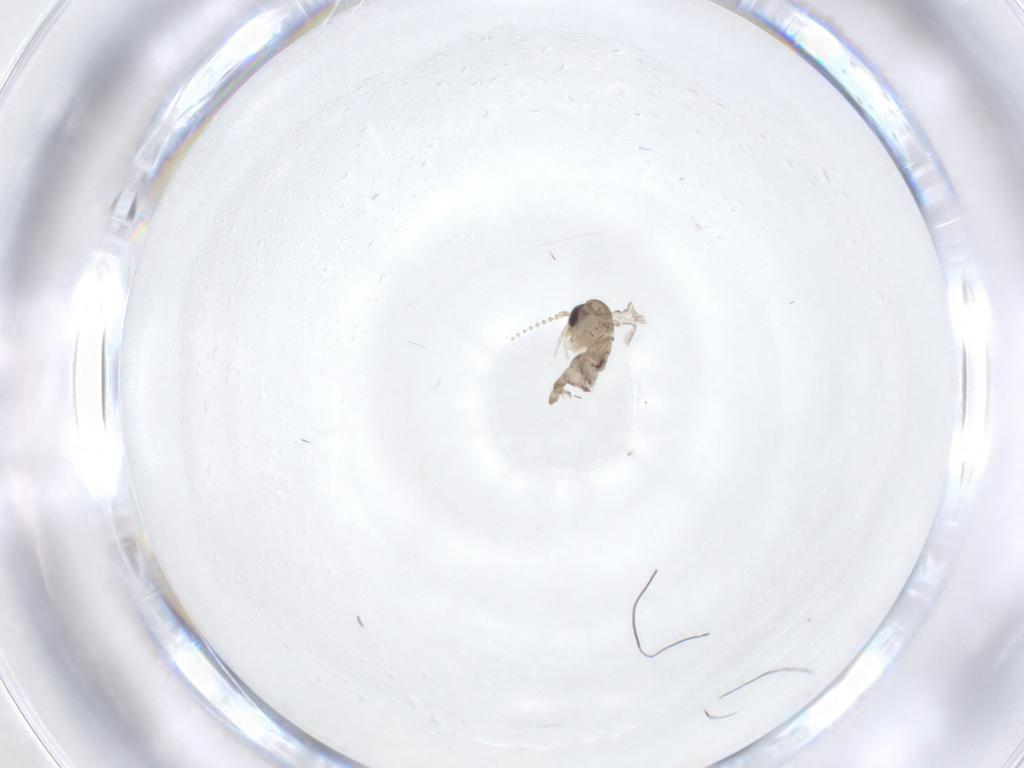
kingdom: Animalia
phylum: Arthropoda
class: Insecta
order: Diptera
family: Psychodidae
